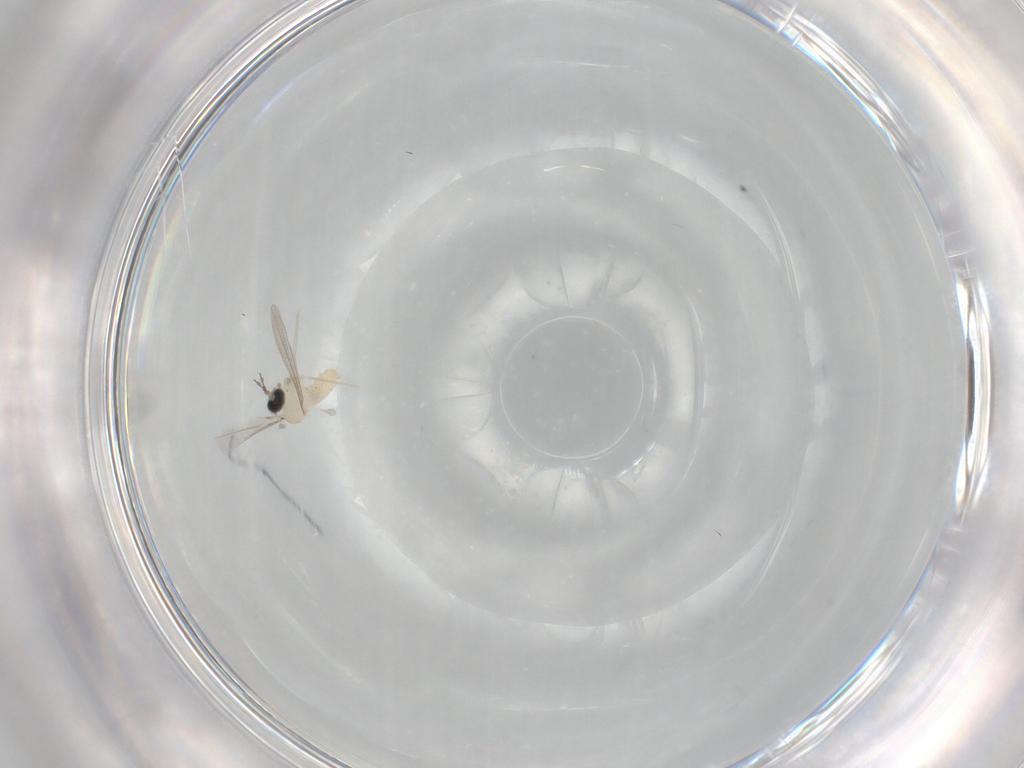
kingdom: Animalia
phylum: Arthropoda
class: Insecta
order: Diptera
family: Cecidomyiidae
